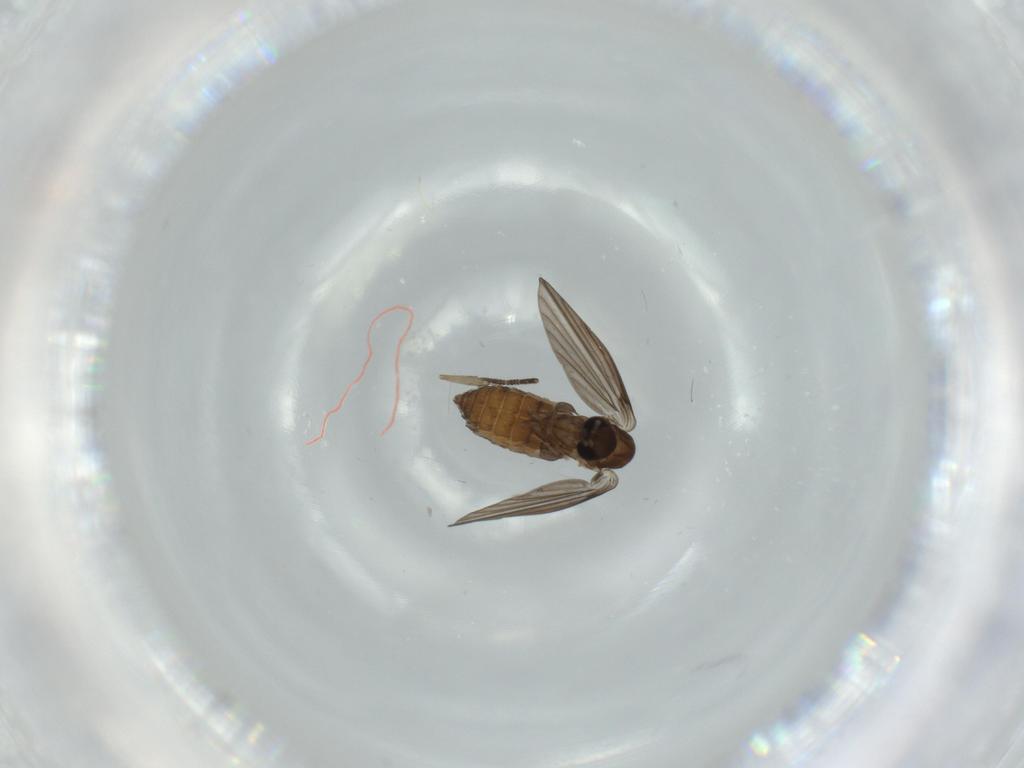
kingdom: Animalia
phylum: Arthropoda
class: Insecta
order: Diptera
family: Psychodidae
